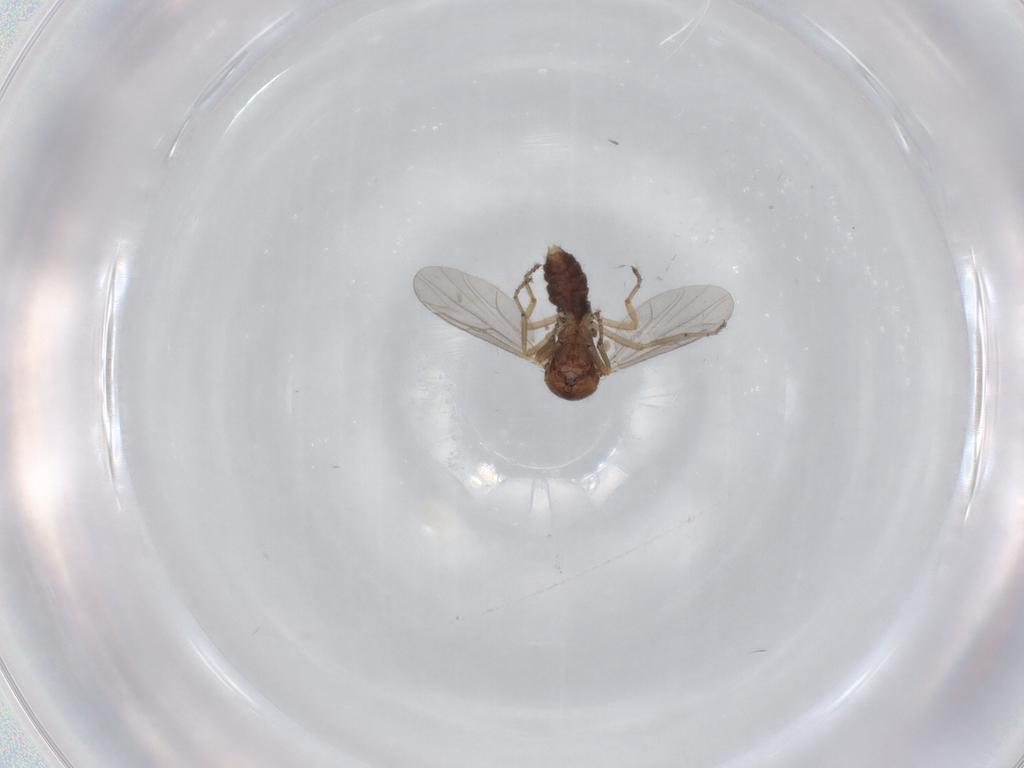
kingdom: Animalia
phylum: Arthropoda
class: Insecta
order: Diptera
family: Ceratopogonidae
